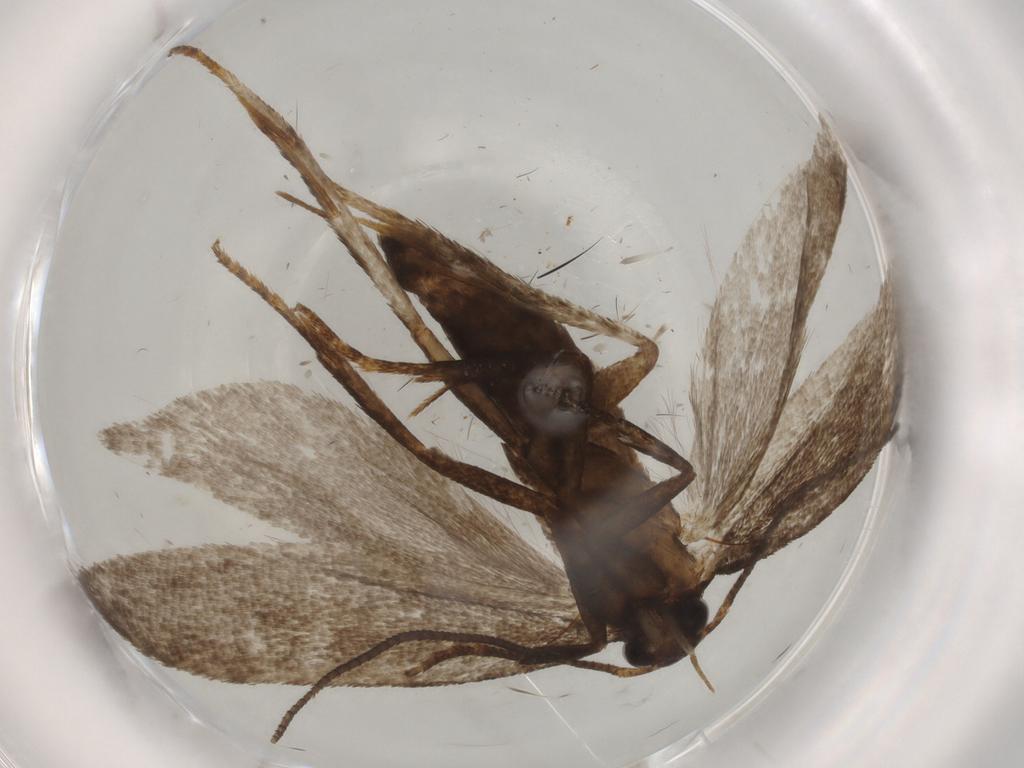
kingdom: Animalia
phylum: Arthropoda
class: Insecta
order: Lepidoptera
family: Gelechiidae
